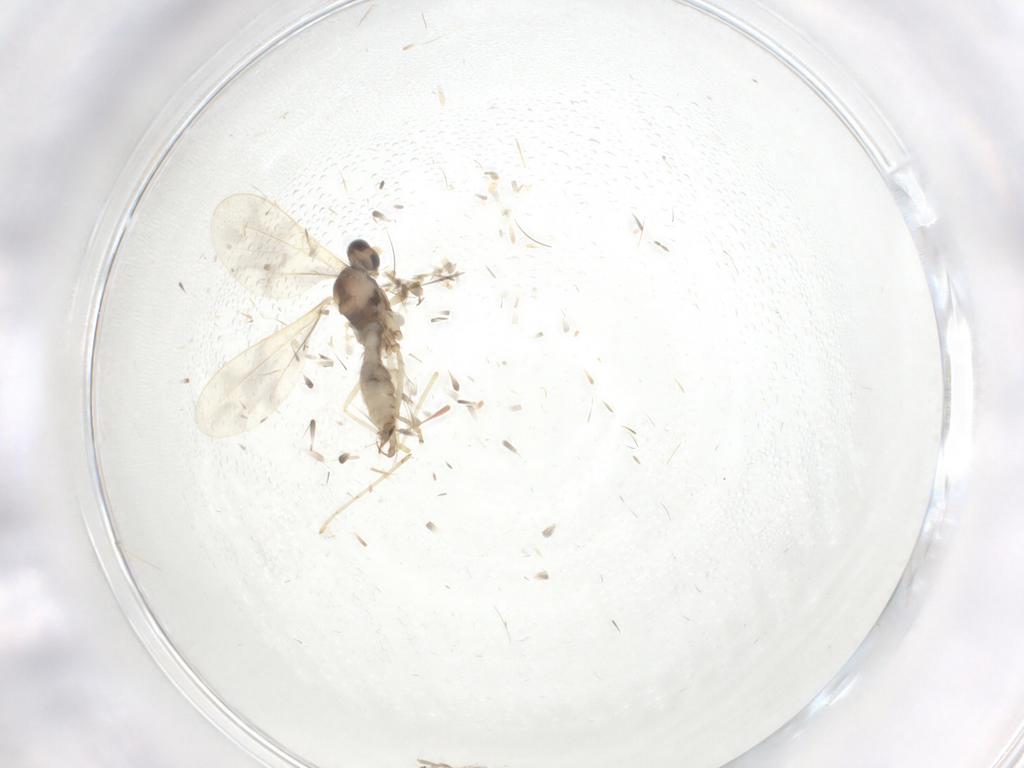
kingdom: Animalia
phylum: Arthropoda
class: Insecta
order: Diptera
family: Cecidomyiidae
